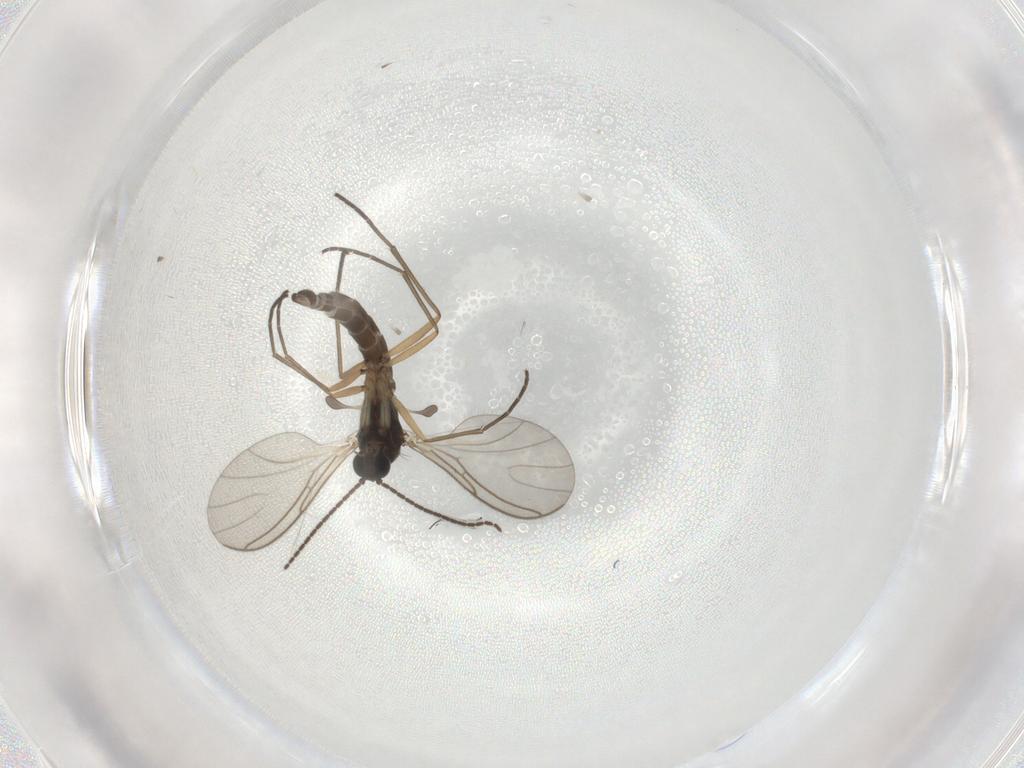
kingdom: Animalia
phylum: Arthropoda
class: Insecta
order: Diptera
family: Sciaridae
